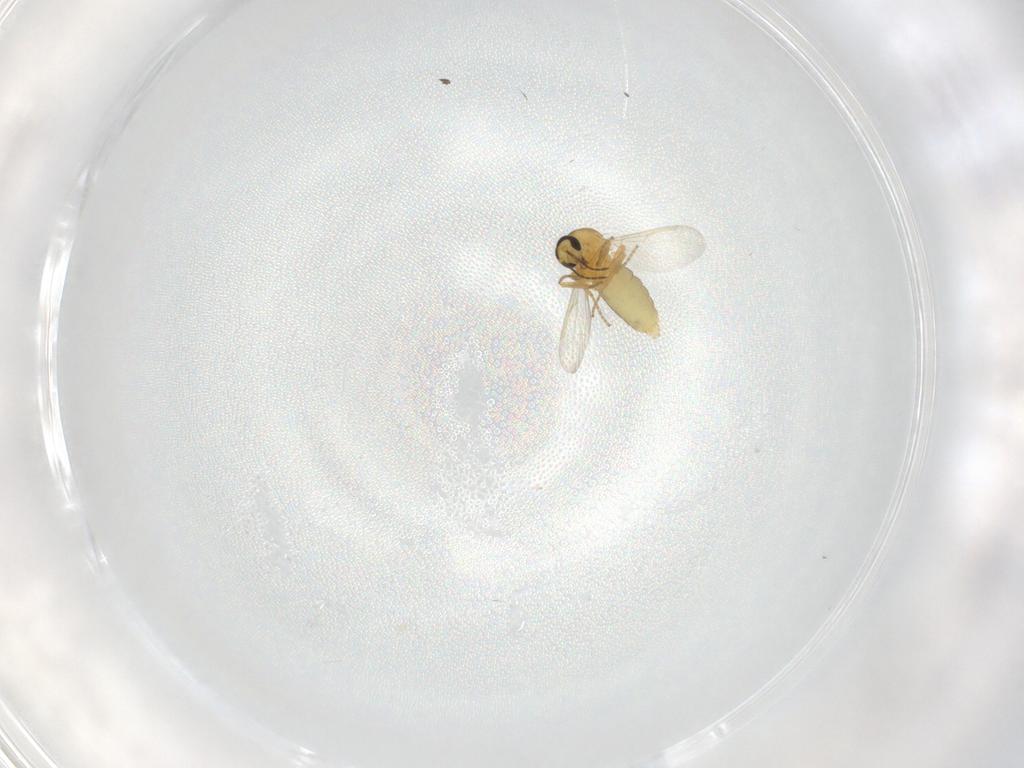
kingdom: Animalia
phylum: Arthropoda
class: Insecta
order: Diptera
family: Ceratopogonidae
